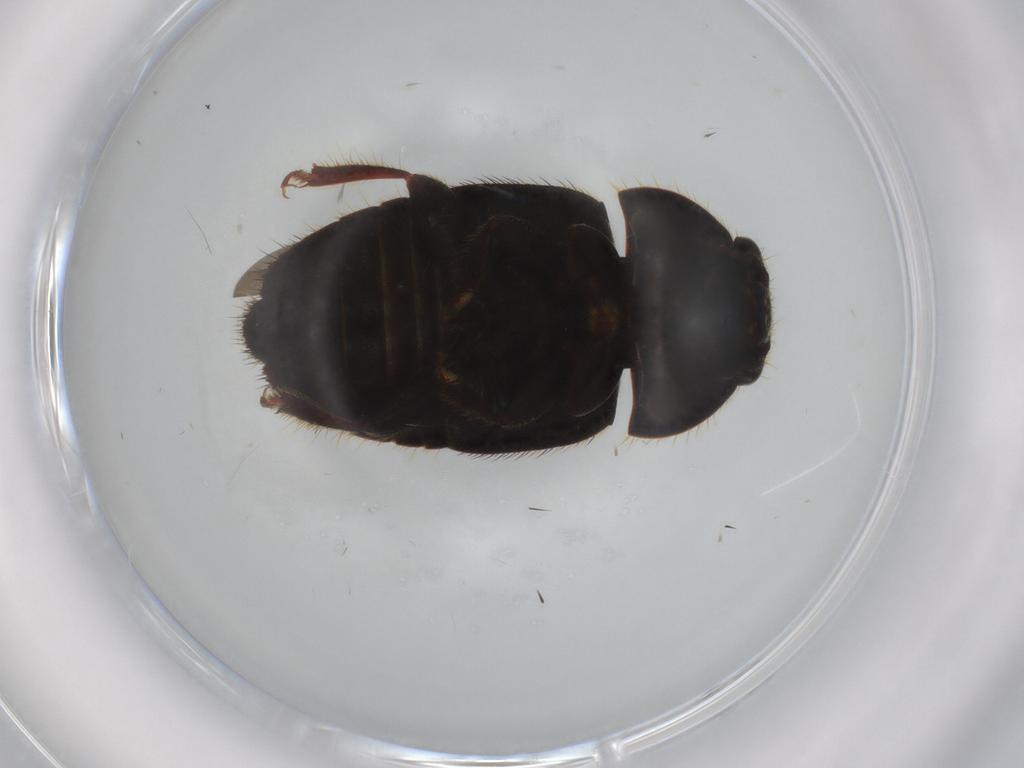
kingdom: Animalia
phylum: Arthropoda
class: Insecta
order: Coleoptera
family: Nitidulidae
